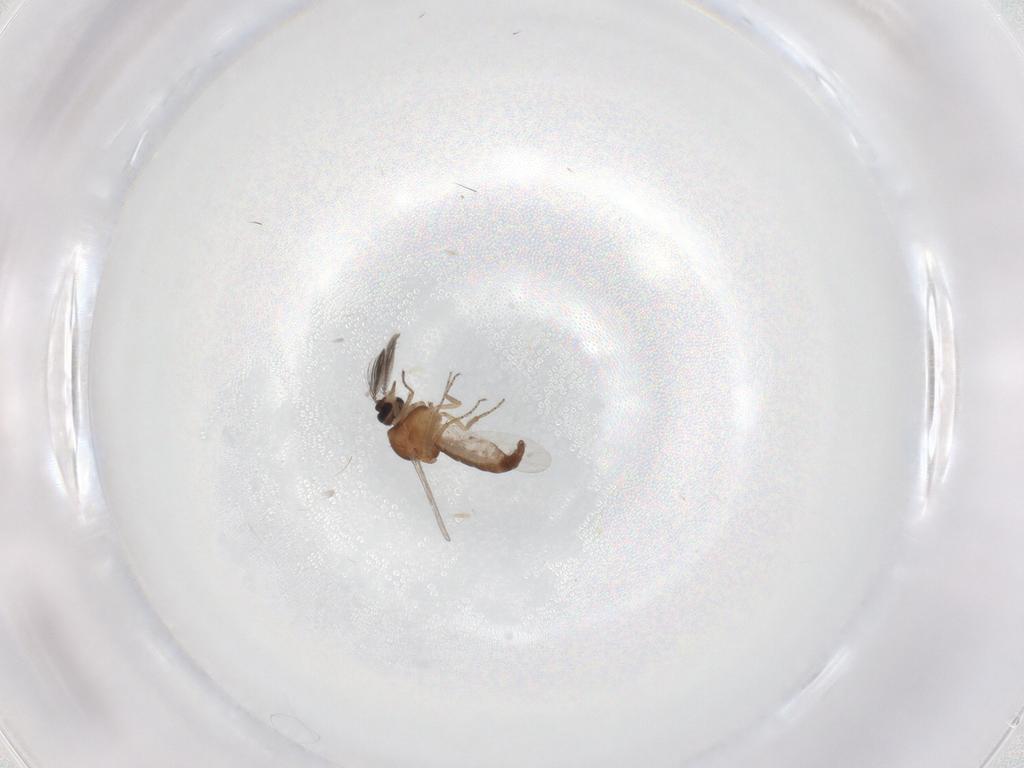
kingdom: Animalia
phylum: Arthropoda
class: Insecta
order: Diptera
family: Ceratopogonidae
